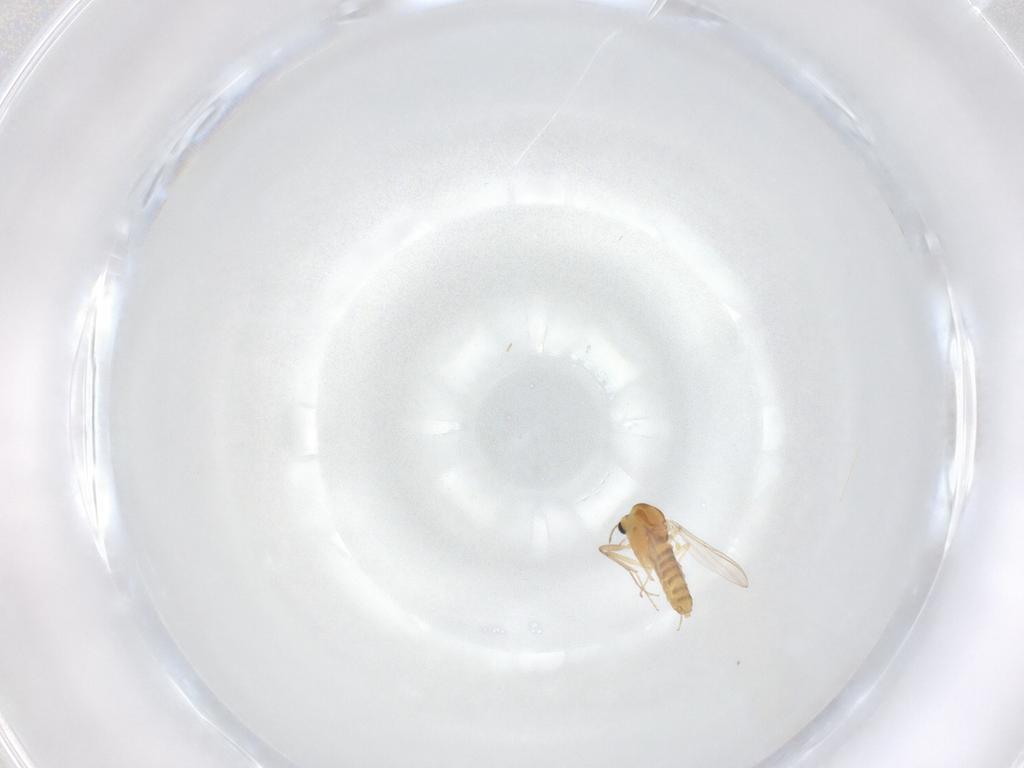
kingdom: Animalia
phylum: Arthropoda
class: Insecta
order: Diptera
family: Chironomidae
